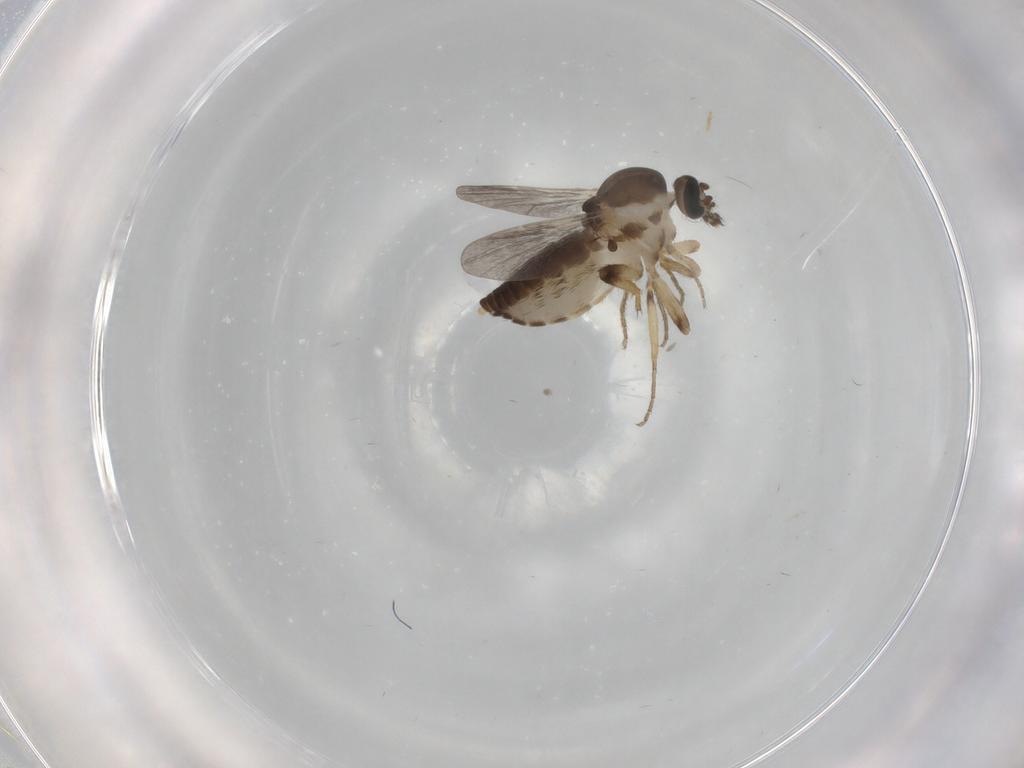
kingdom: Animalia
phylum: Arthropoda
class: Insecta
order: Diptera
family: Ceratopogonidae
